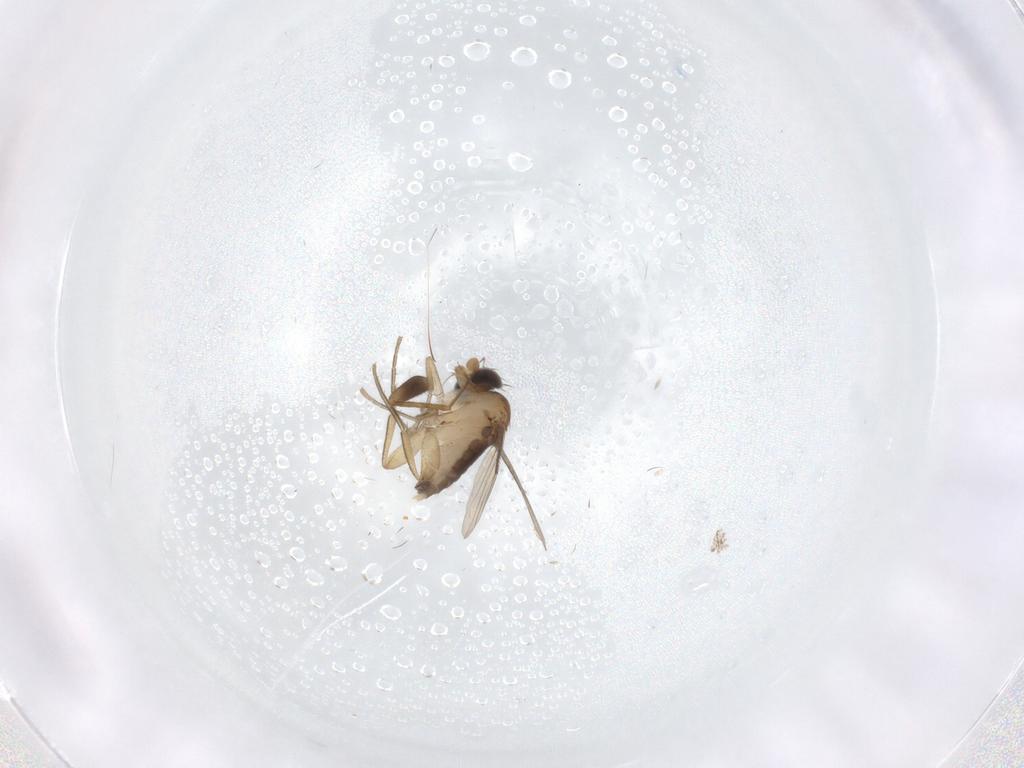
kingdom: Animalia
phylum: Arthropoda
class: Insecta
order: Diptera
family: Phoridae
